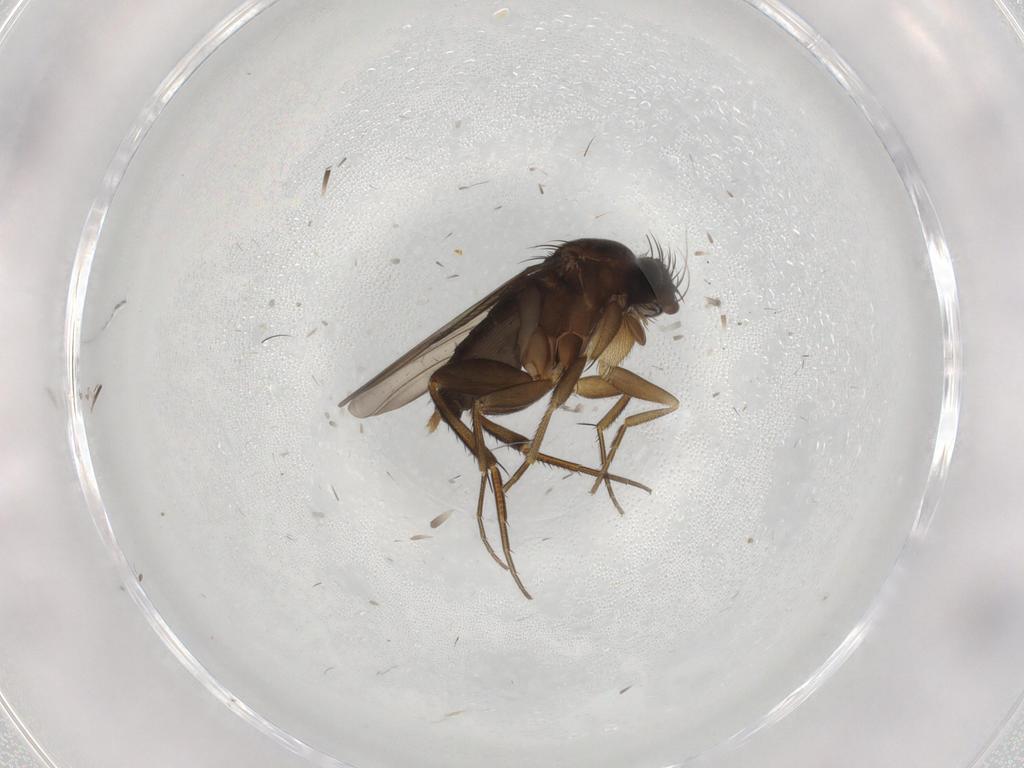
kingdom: Animalia
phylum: Arthropoda
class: Insecta
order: Diptera
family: Phoridae
